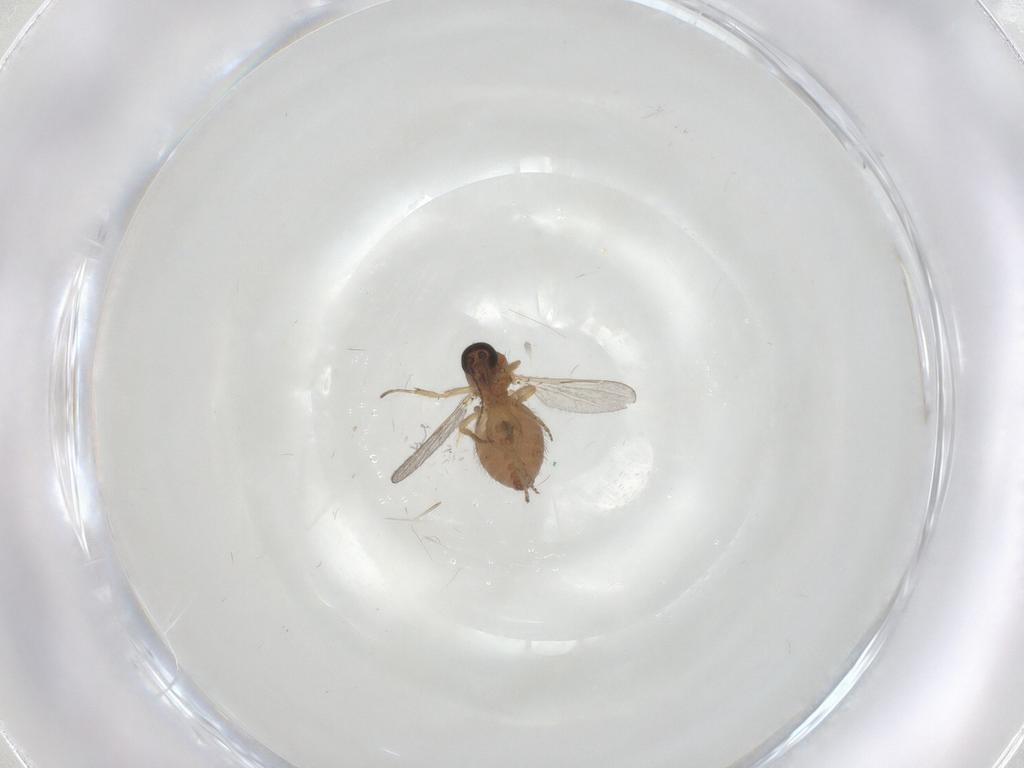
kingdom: Animalia
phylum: Arthropoda
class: Insecta
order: Diptera
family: Ceratopogonidae
